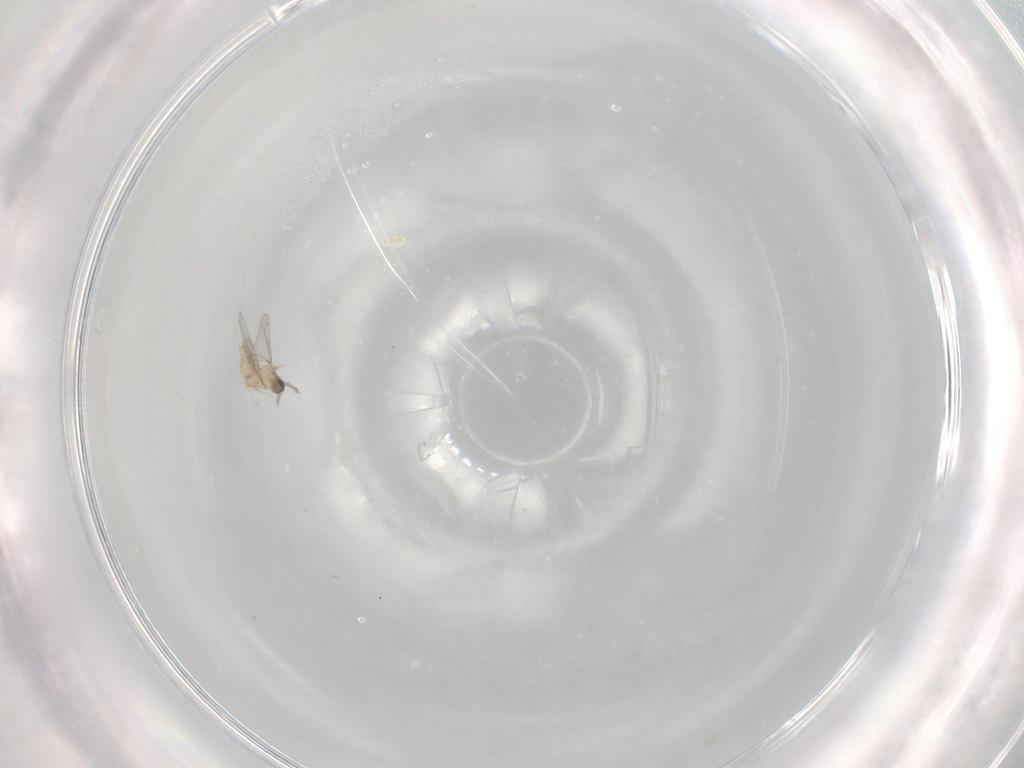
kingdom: Animalia
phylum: Arthropoda
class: Insecta
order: Diptera
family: Cecidomyiidae
